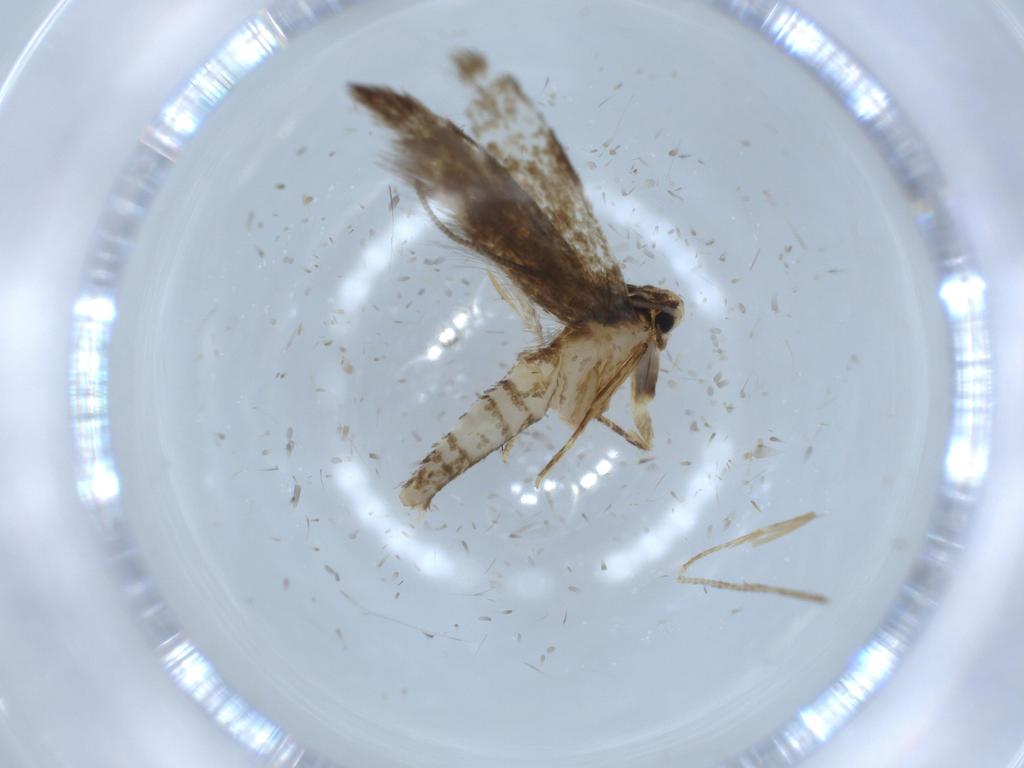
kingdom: Animalia
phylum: Arthropoda
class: Insecta
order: Lepidoptera
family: Tineidae
